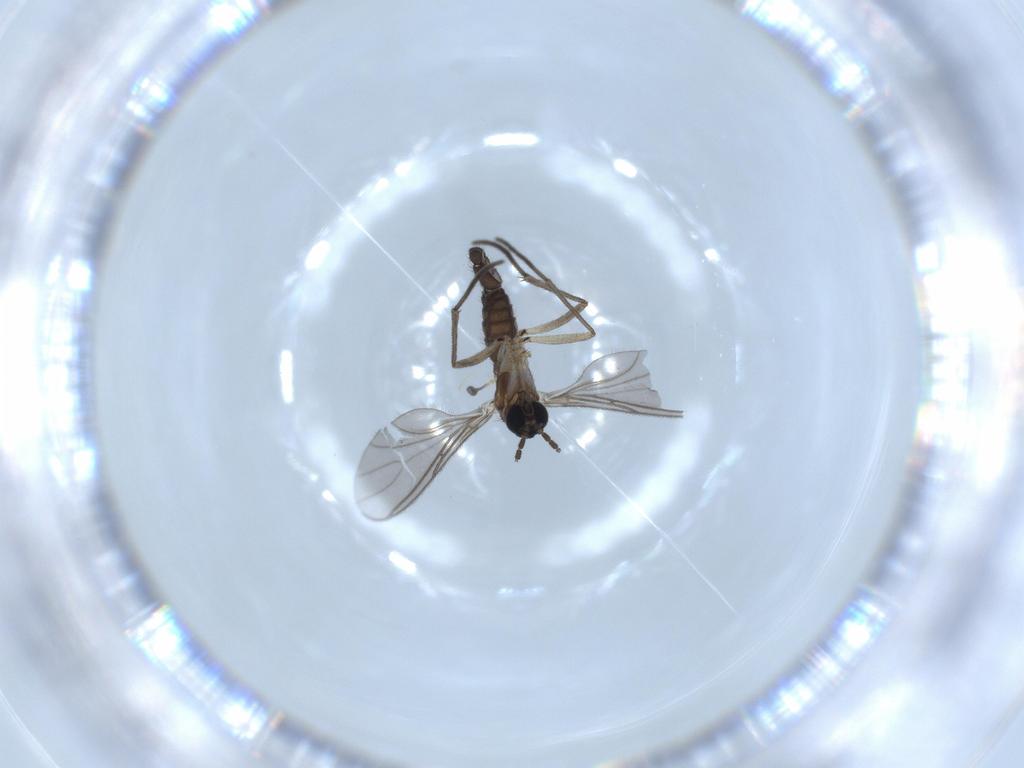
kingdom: Animalia
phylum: Arthropoda
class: Insecta
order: Diptera
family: Sciaridae
